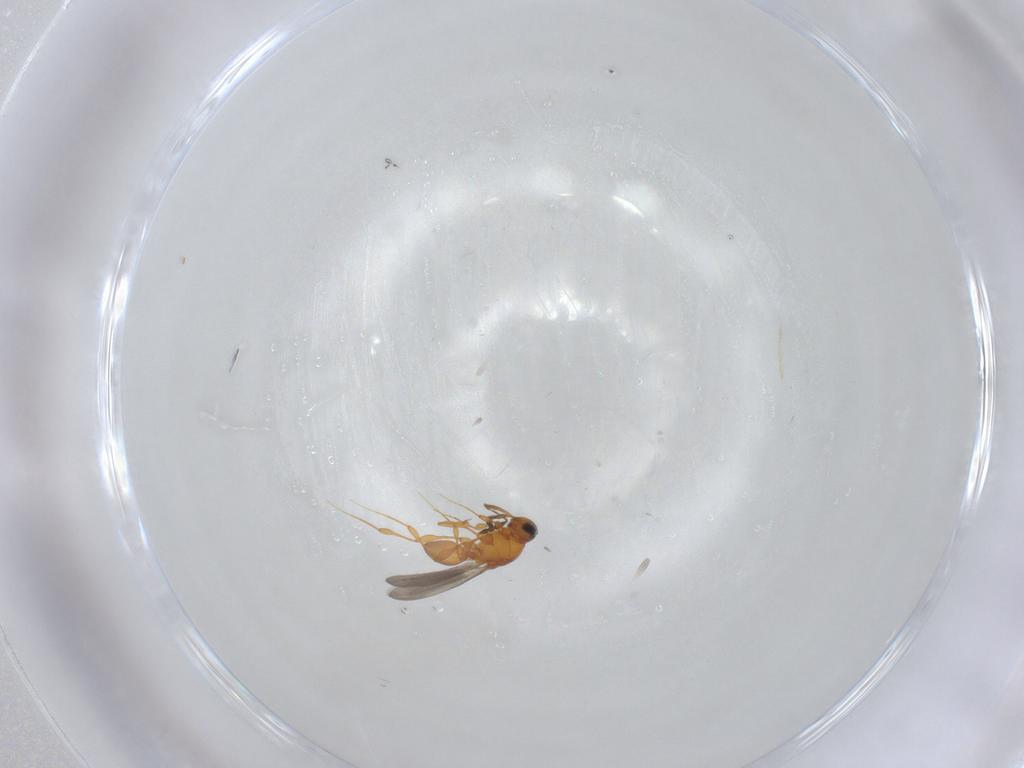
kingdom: Animalia
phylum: Arthropoda
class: Insecta
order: Hymenoptera
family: Platygastridae
